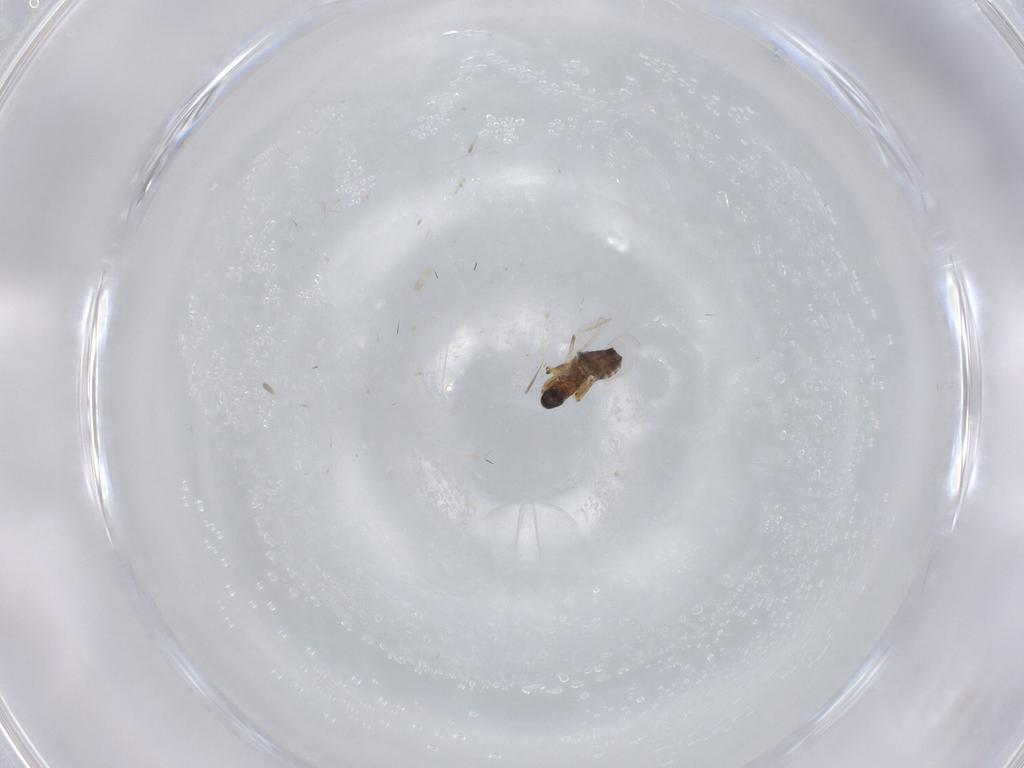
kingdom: Animalia
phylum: Arthropoda
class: Insecta
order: Diptera
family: Ceratopogonidae
